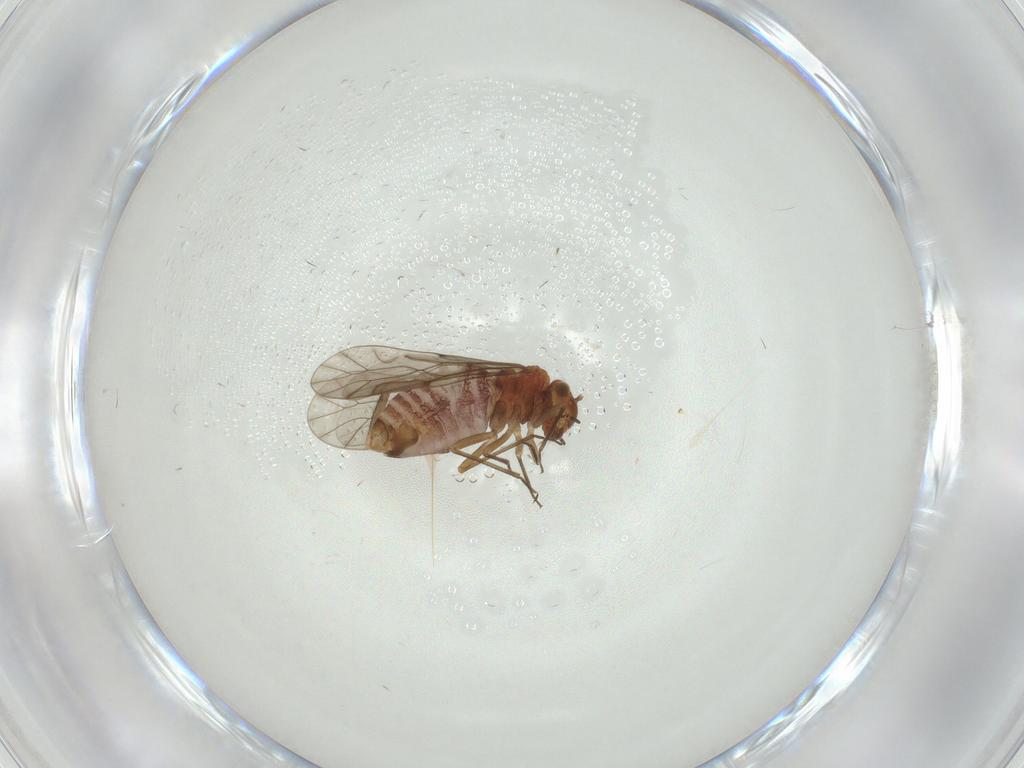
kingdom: Animalia
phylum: Arthropoda
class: Insecta
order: Psocodea
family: Lachesillidae
